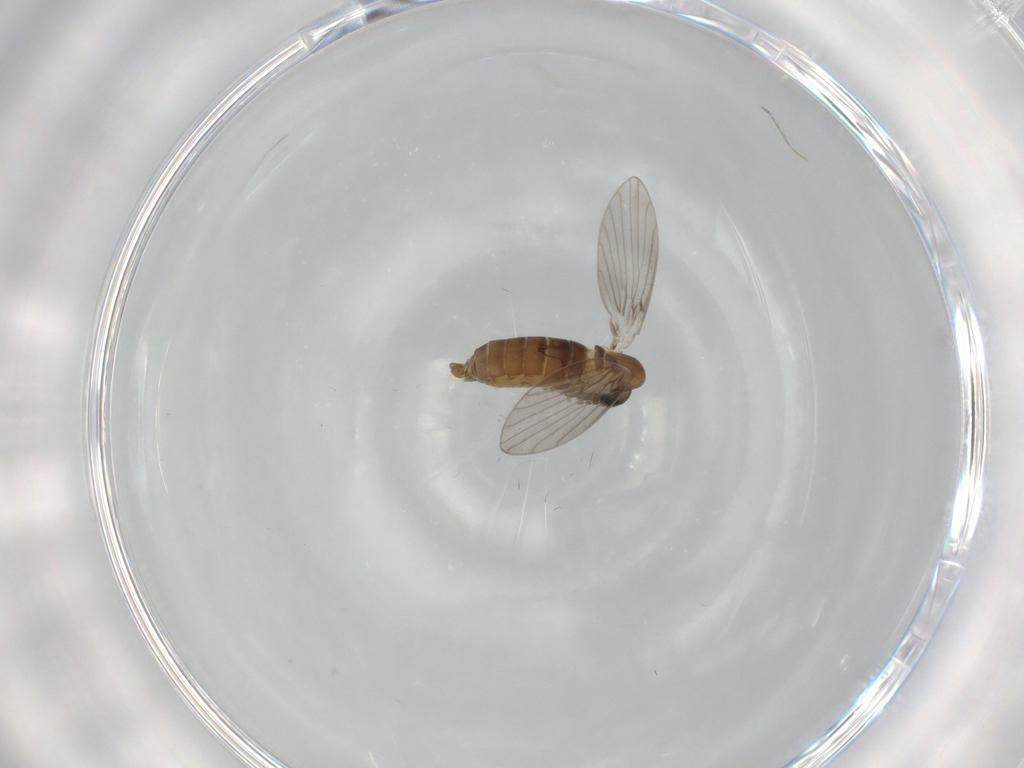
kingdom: Animalia
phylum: Arthropoda
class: Insecta
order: Diptera
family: Psychodidae
